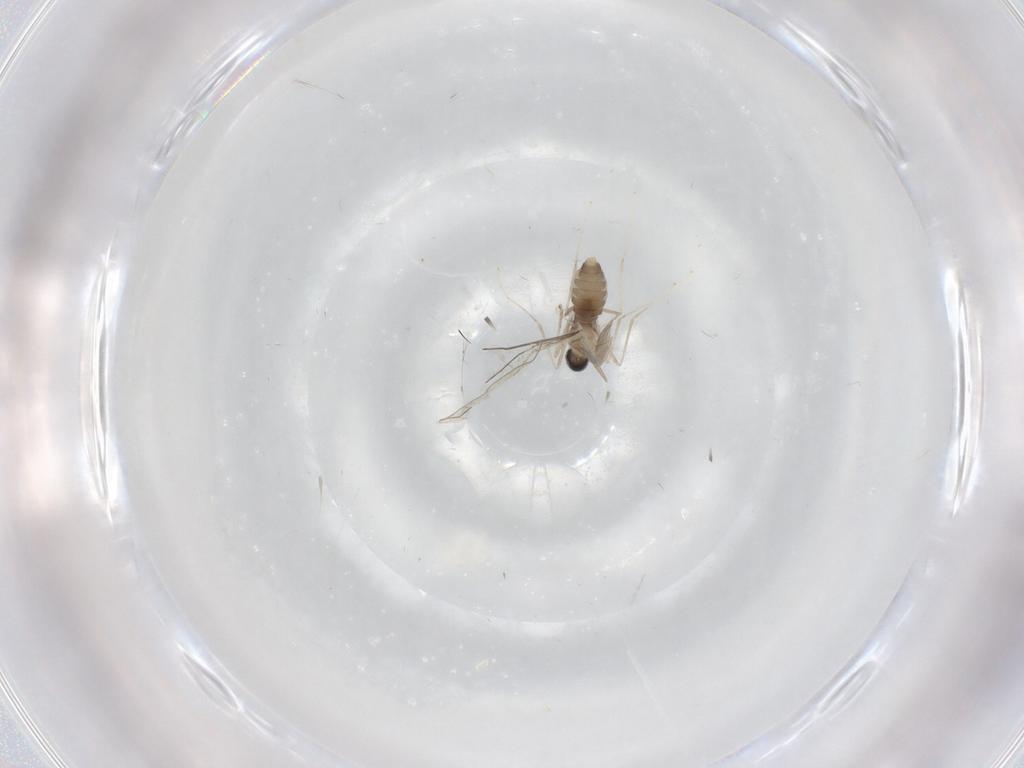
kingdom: Animalia
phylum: Arthropoda
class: Insecta
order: Diptera
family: Cecidomyiidae
